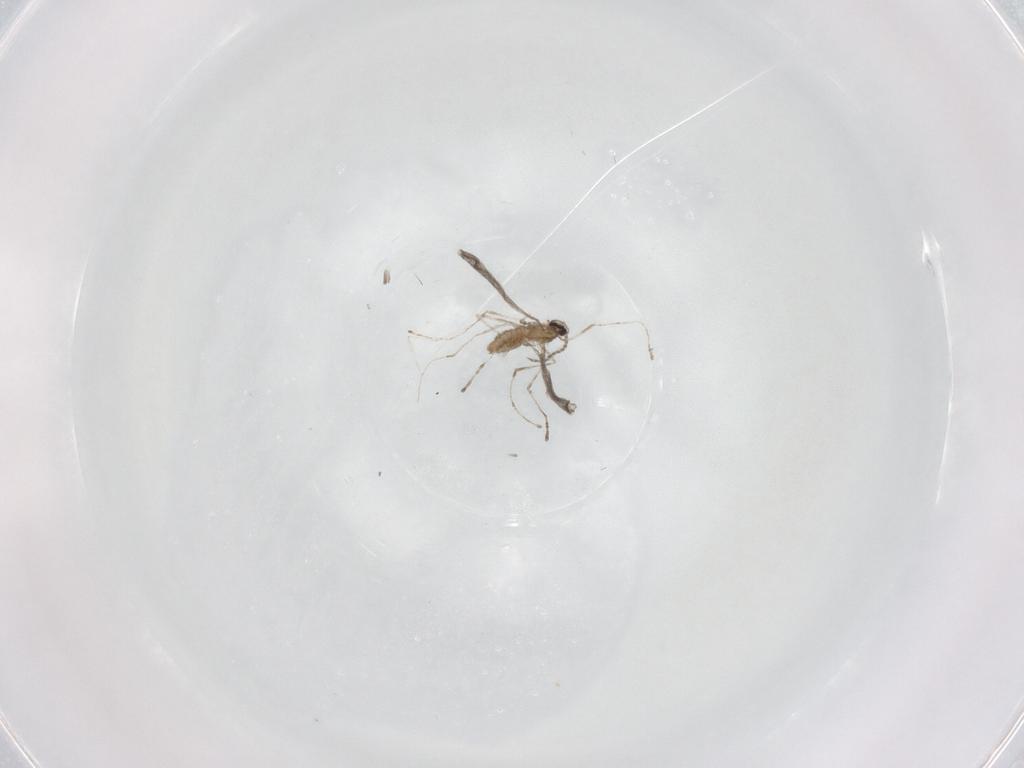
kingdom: Animalia
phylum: Arthropoda
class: Insecta
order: Diptera
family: Cecidomyiidae
